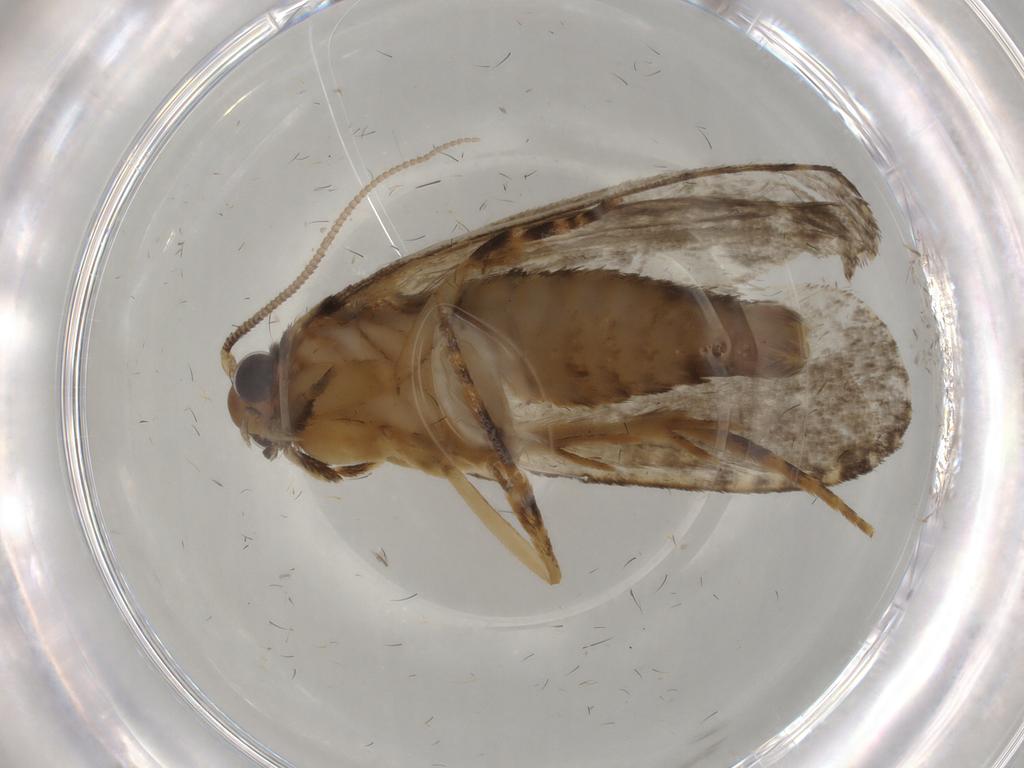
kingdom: Animalia
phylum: Arthropoda
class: Insecta
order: Lepidoptera
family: Tineidae
